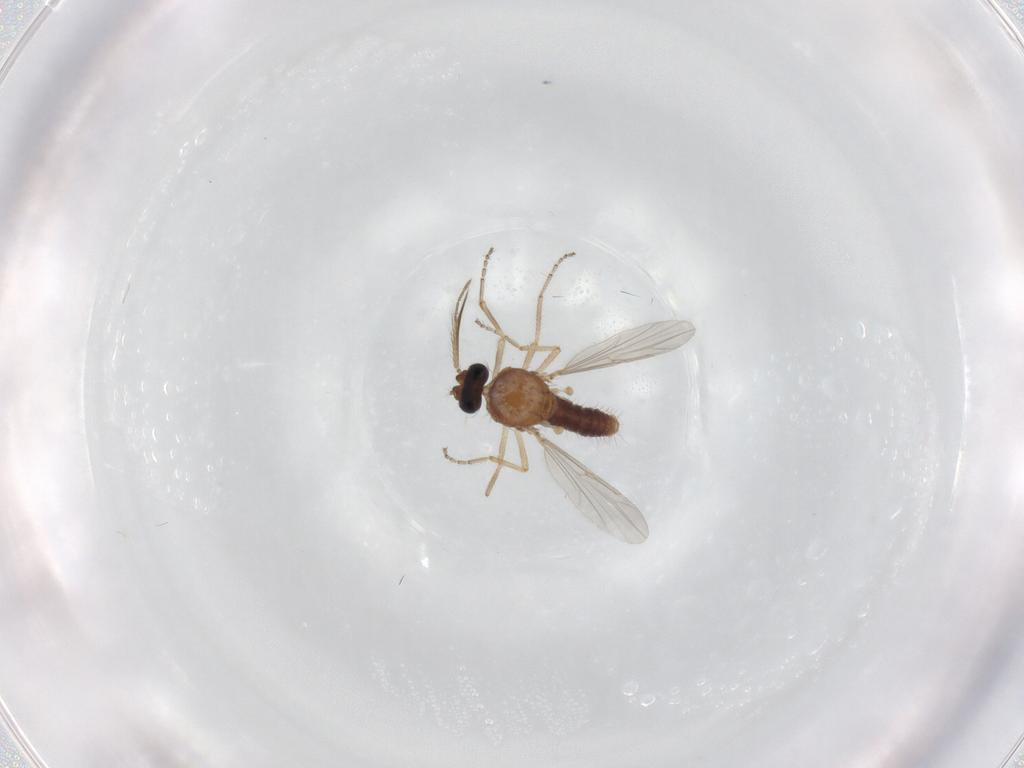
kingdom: Animalia
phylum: Arthropoda
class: Insecta
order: Diptera
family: Ceratopogonidae
